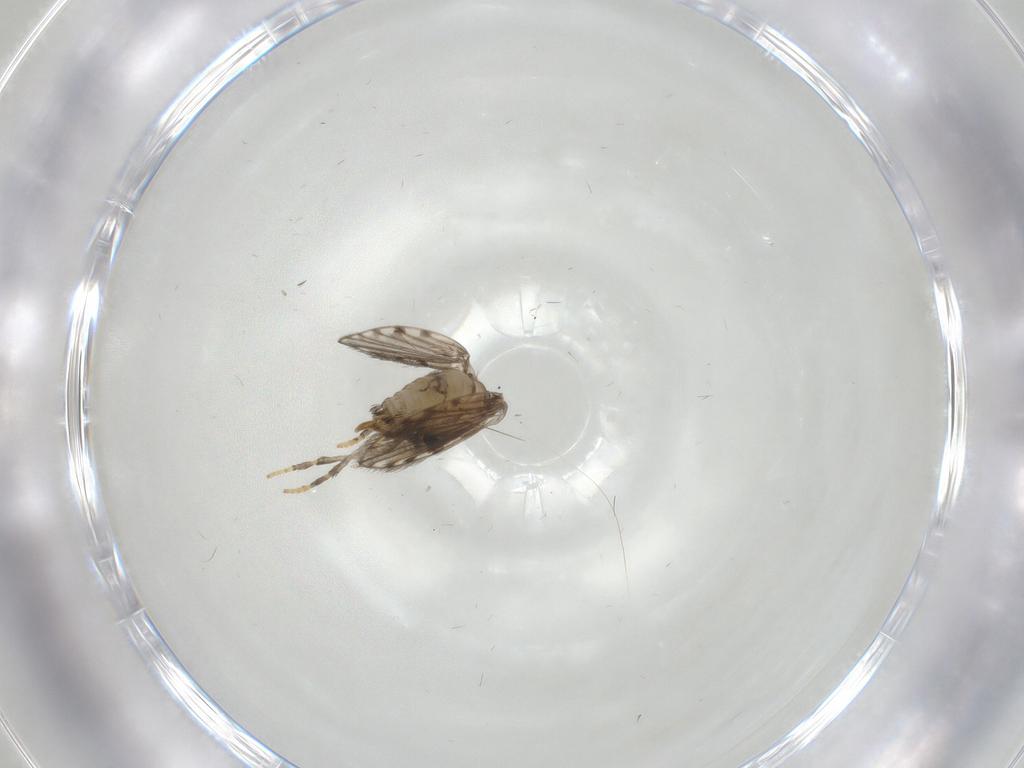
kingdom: Animalia
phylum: Arthropoda
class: Insecta
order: Diptera
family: Psychodidae
